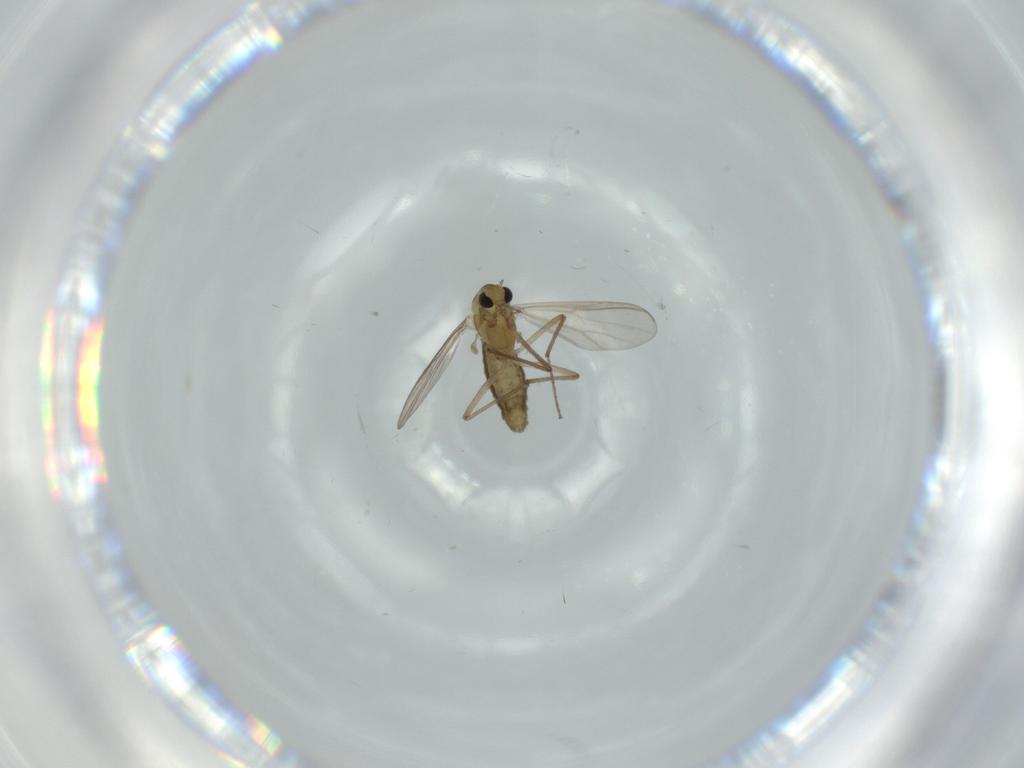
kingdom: Animalia
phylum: Arthropoda
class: Insecta
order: Diptera
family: Chironomidae
